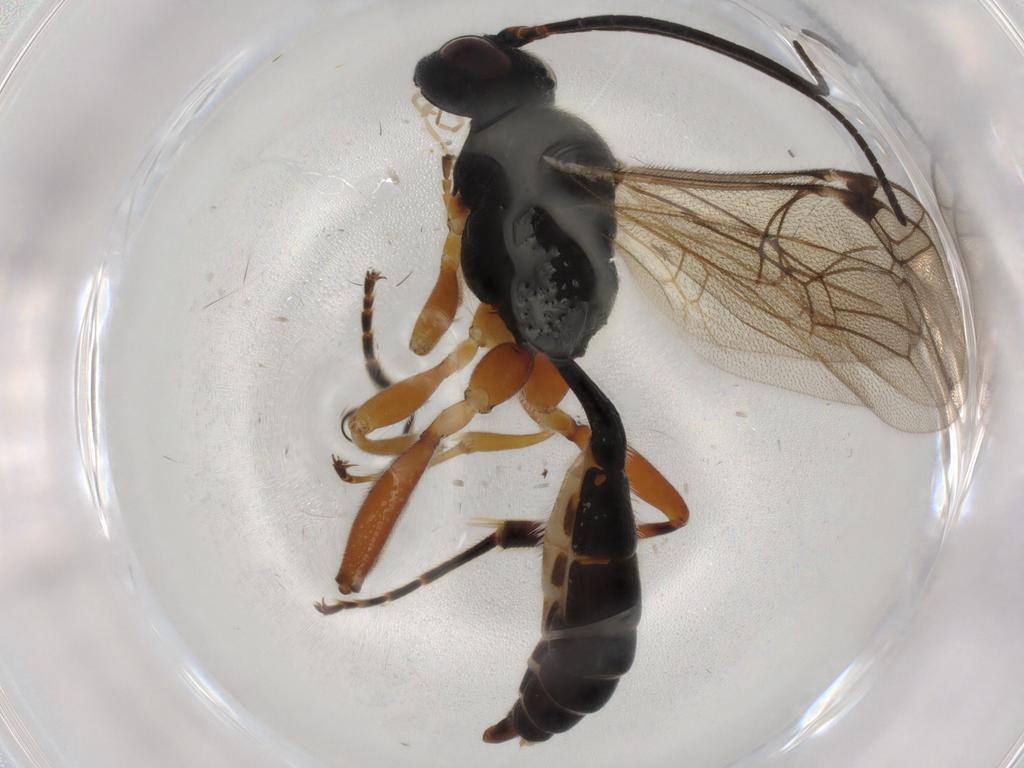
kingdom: Animalia
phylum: Arthropoda
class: Insecta
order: Hymenoptera
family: Ichneumonidae
